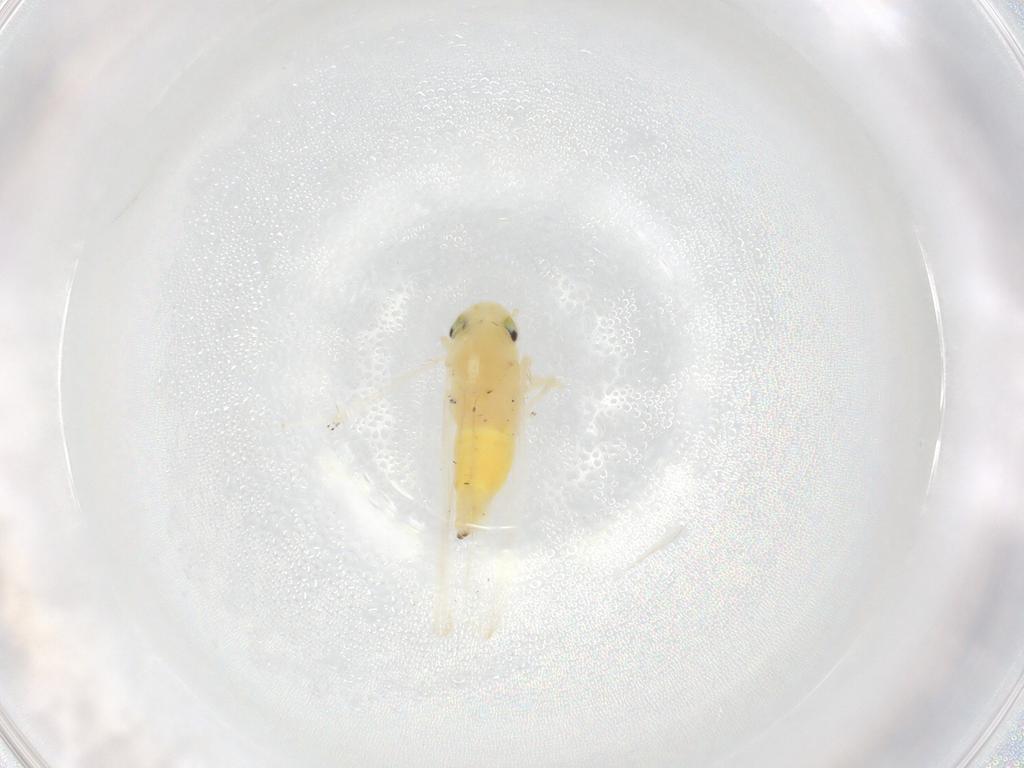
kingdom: Animalia
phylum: Arthropoda
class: Insecta
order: Hemiptera
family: Cicadellidae
